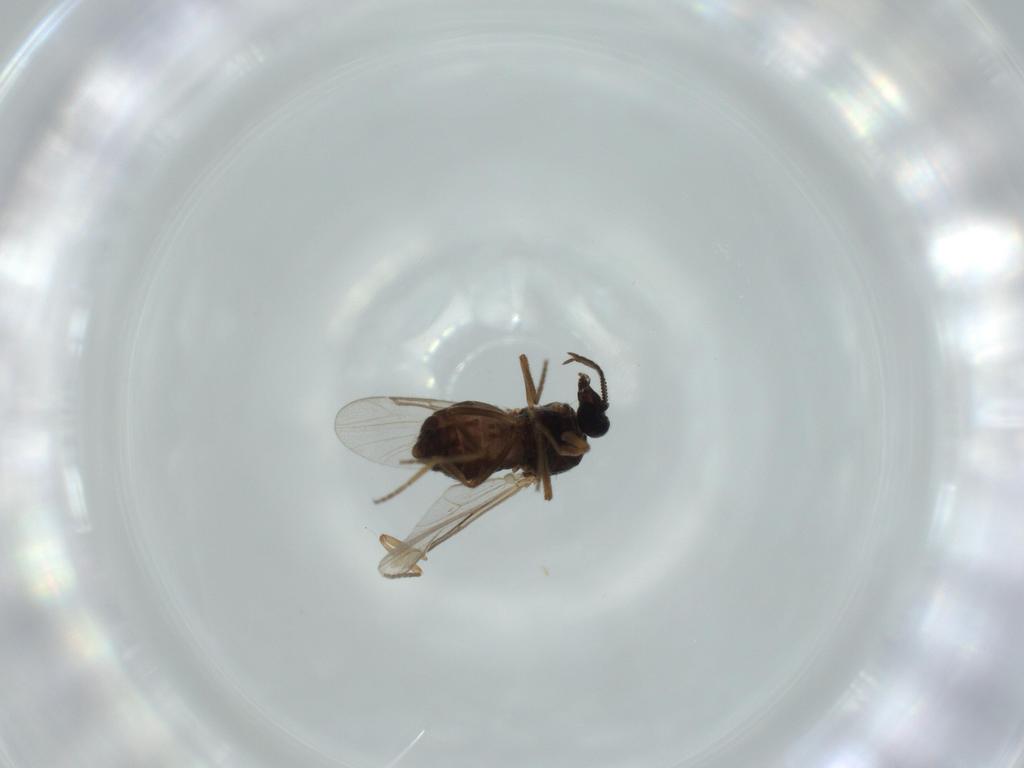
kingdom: Animalia
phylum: Arthropoda
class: Insecta
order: Diptera
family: Ceratopogonidae
